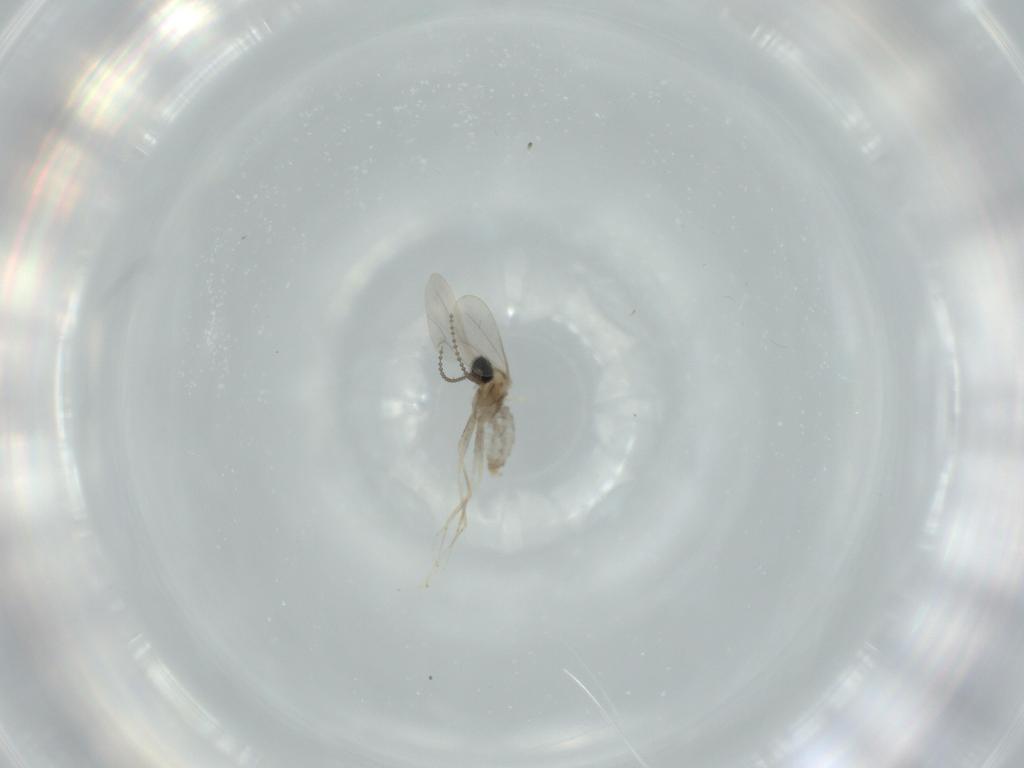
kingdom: Animalia
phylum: Arthropoda
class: Insecta
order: Diptera
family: Cecidomyiidae
